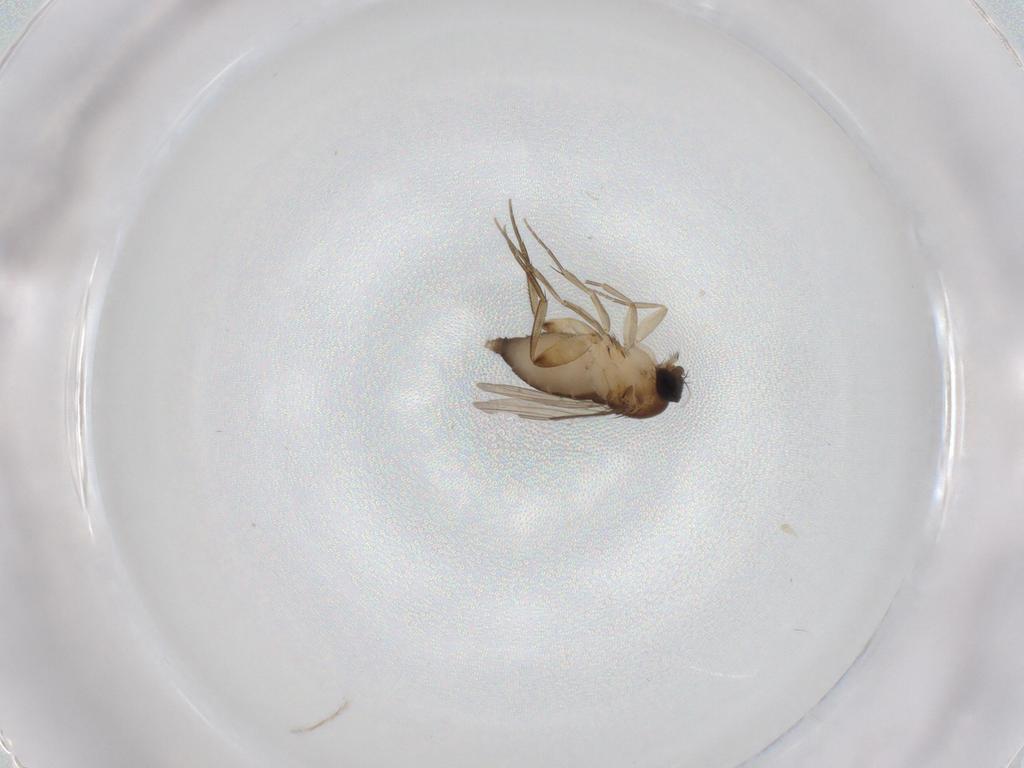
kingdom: Animalia
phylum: Arthropoda
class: Insecta
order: Diptera
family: Phoridae
